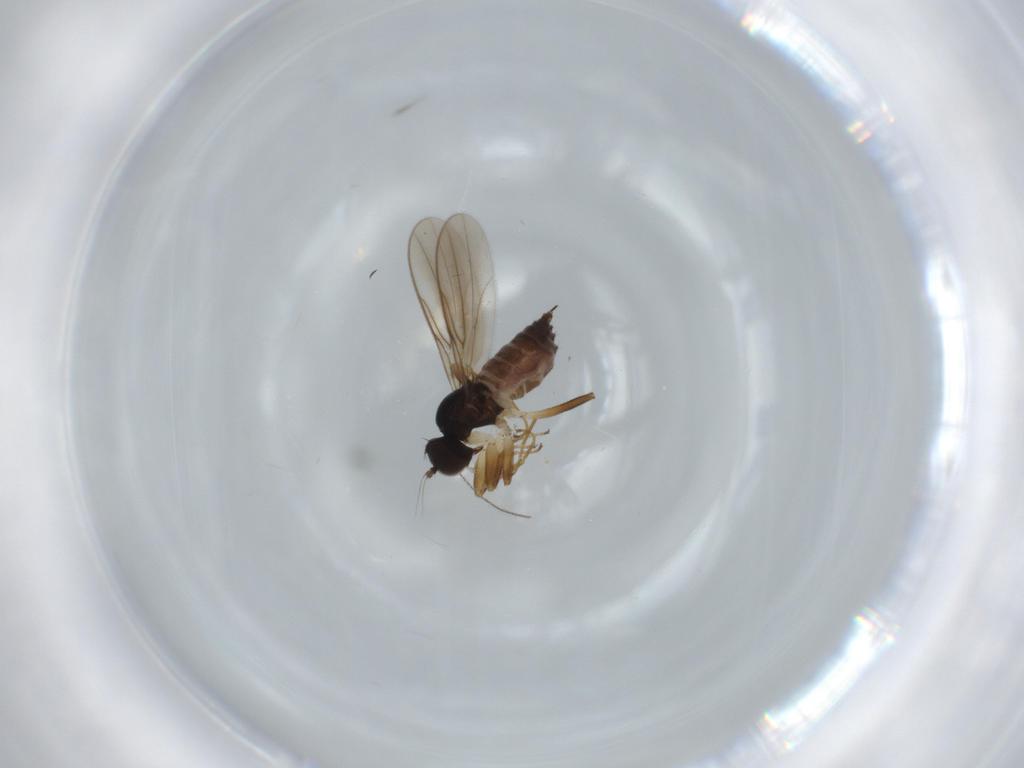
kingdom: Animalia
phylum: Arthropoda
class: Insecta
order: Diptera
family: Hybotidae
